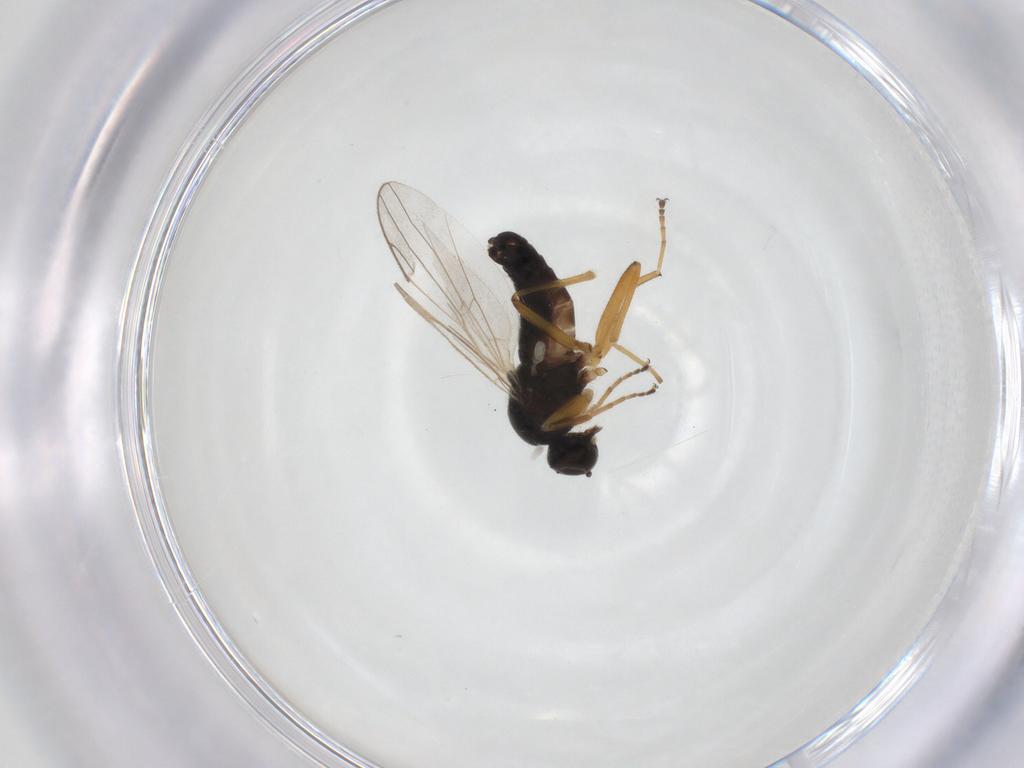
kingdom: Animalia
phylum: Arthropoda
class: Insecta
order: Diptera
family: Hybotidae
